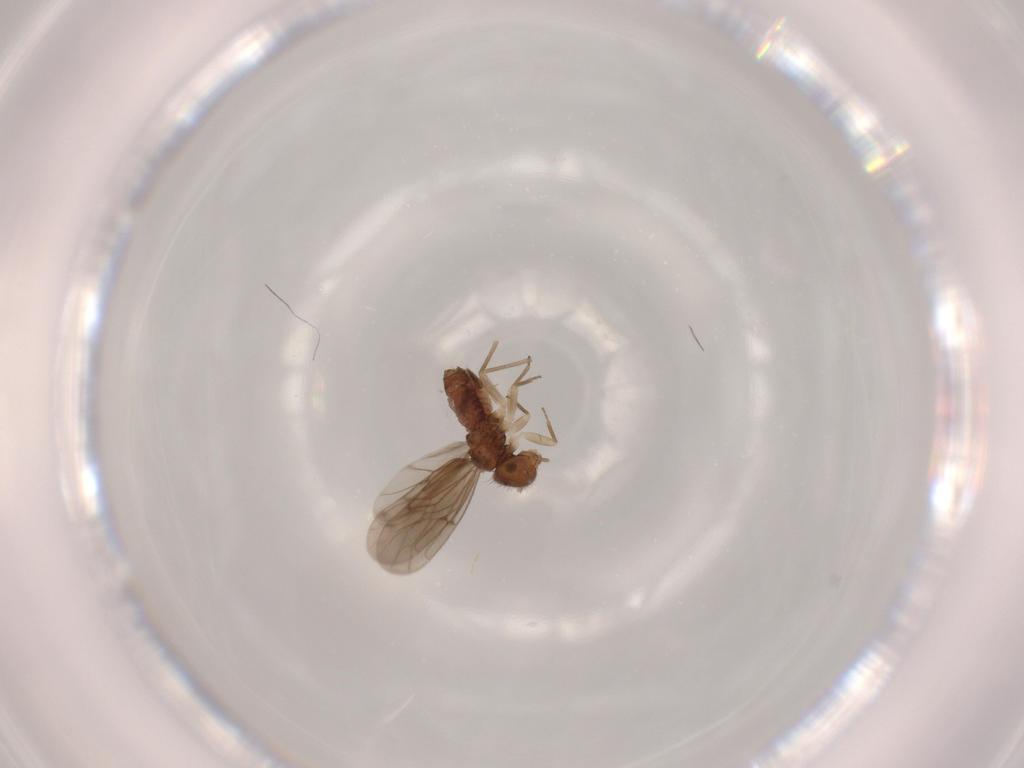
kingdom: Animalia
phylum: Arthropoda
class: Insecta
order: Psocodea
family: Ectopsocidae
